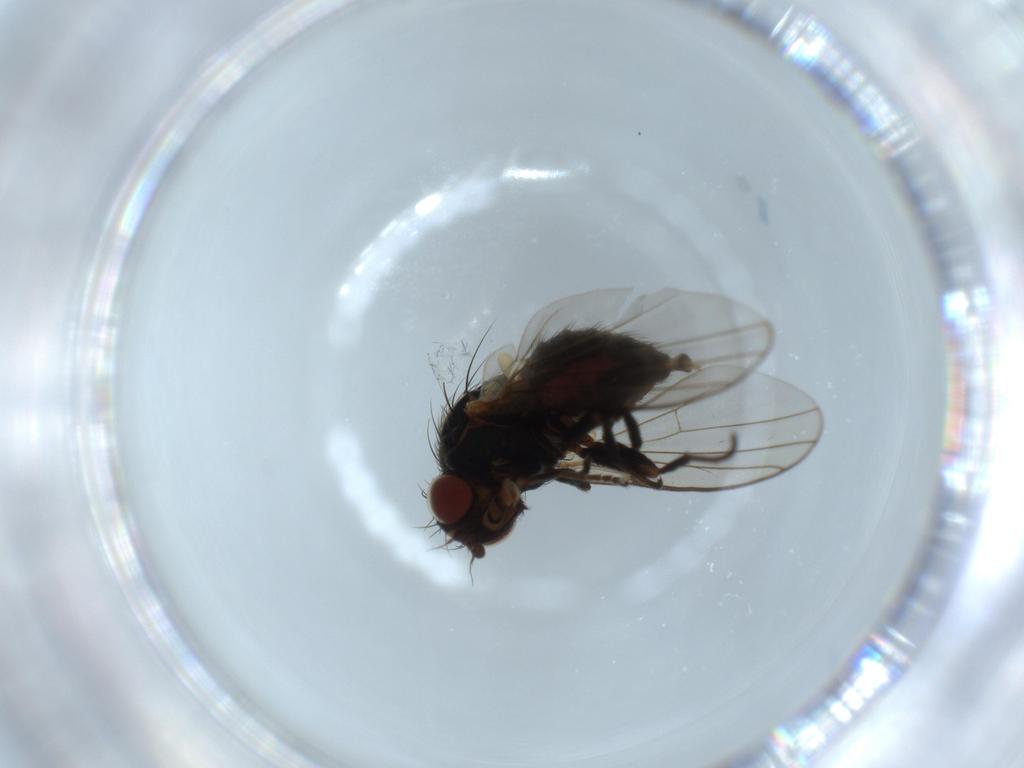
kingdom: Animalia
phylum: Arthropoda
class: Insecta
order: Diptera
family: Agromyzidae
